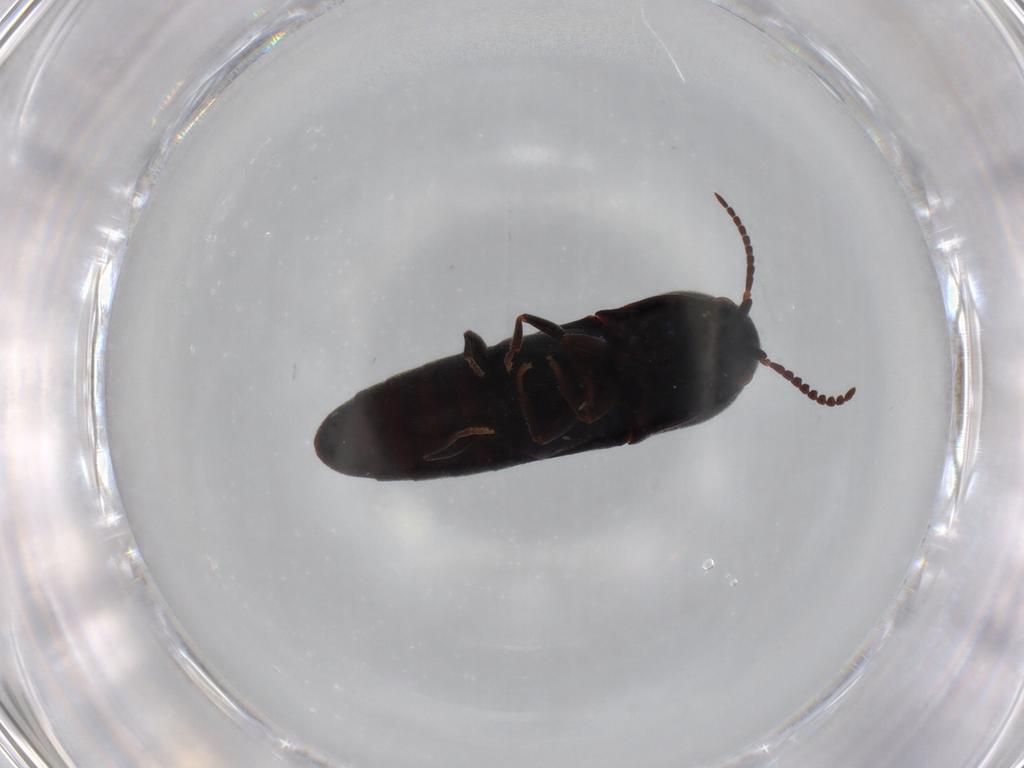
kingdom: Animalia
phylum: Arthropoda
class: Insecta
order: Coleoptera
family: Eucnemidae
